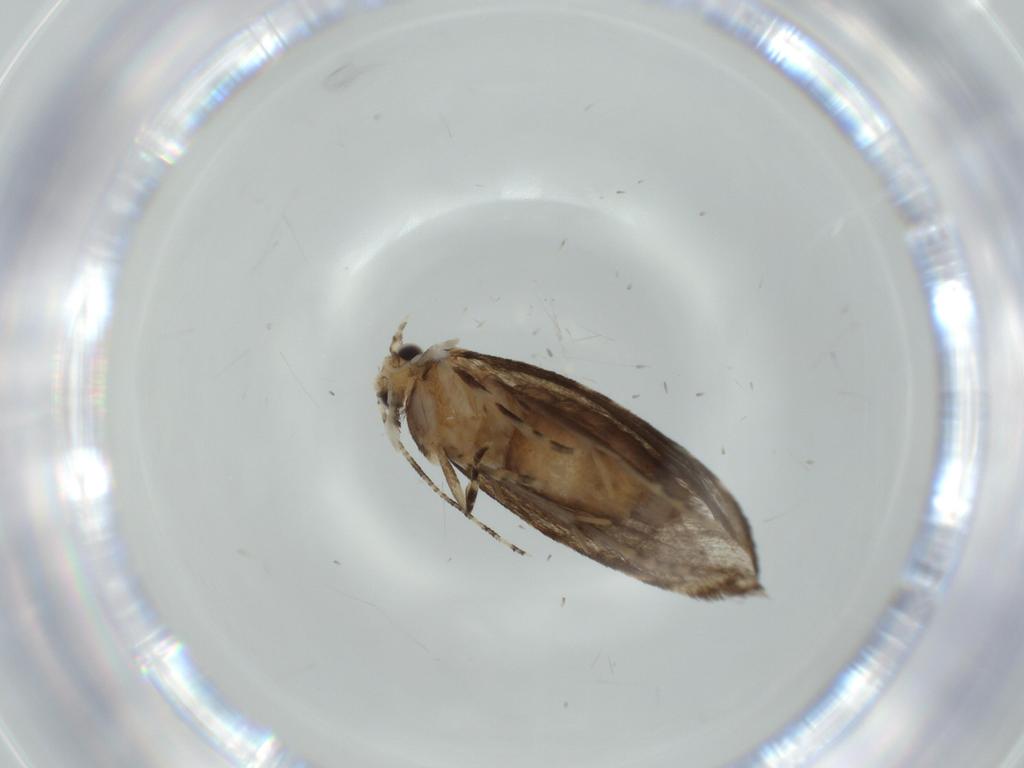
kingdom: Animalia
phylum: Arthropoda
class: Insecta
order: Lepidoptera
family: Tineidae
